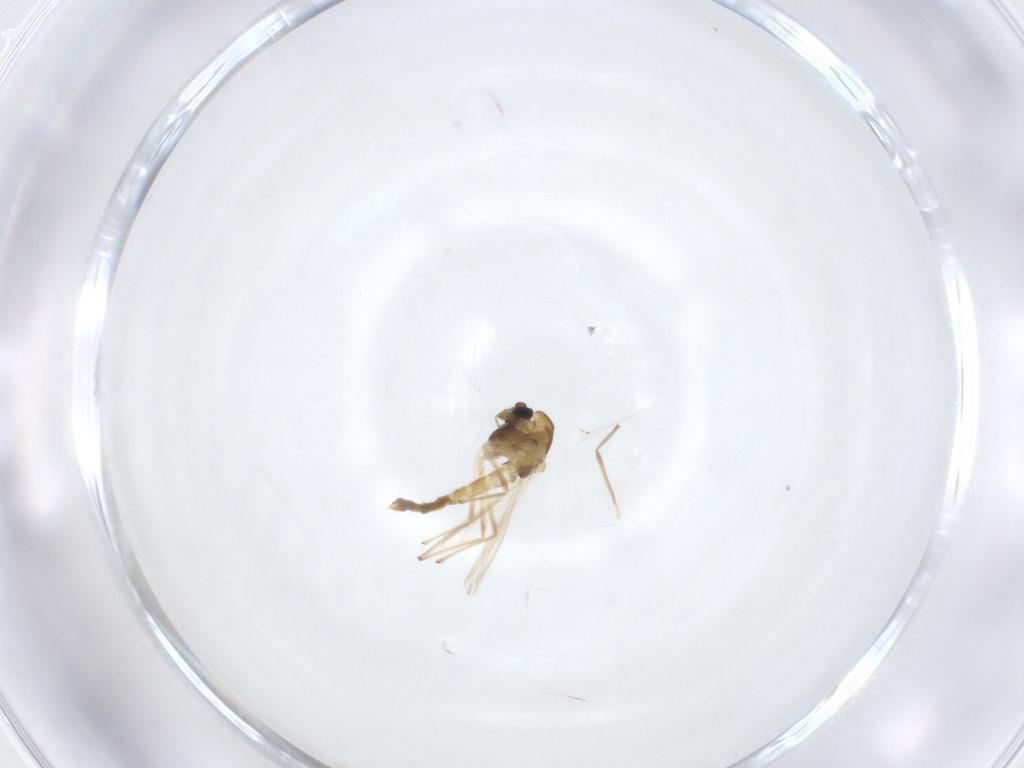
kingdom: Animalia
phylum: Arthropoda
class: Insecta
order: Diptera
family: Chironomidae
